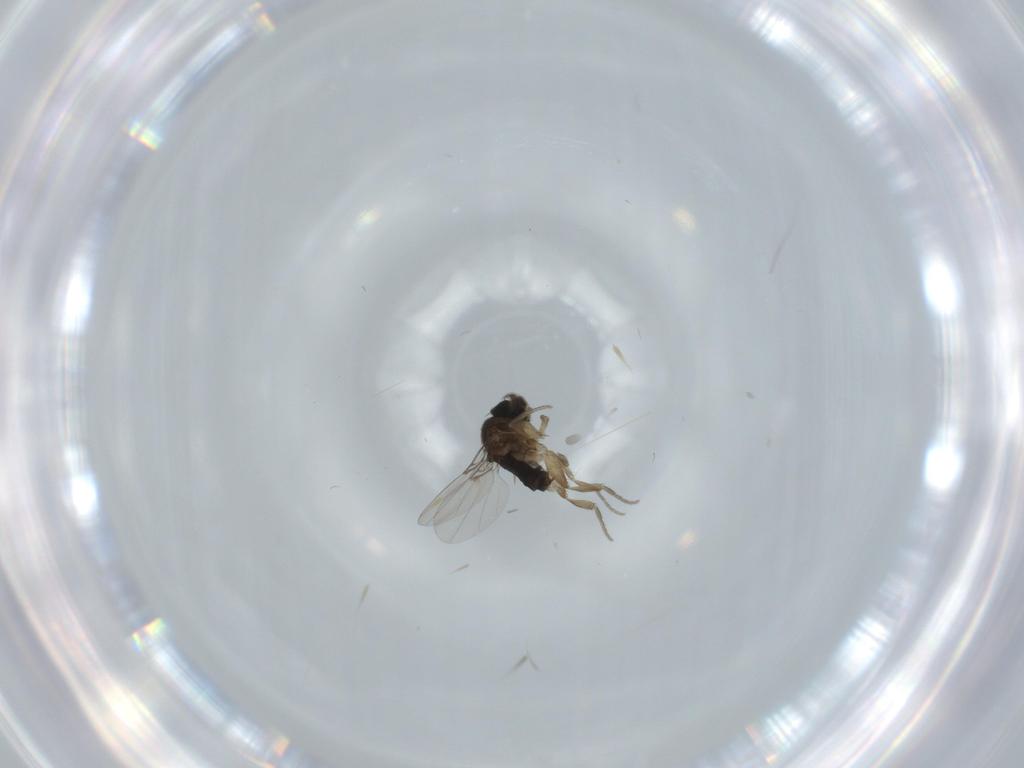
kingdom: Animalia
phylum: Arthropoda
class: Insecta
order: Diptera
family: Phoridae
